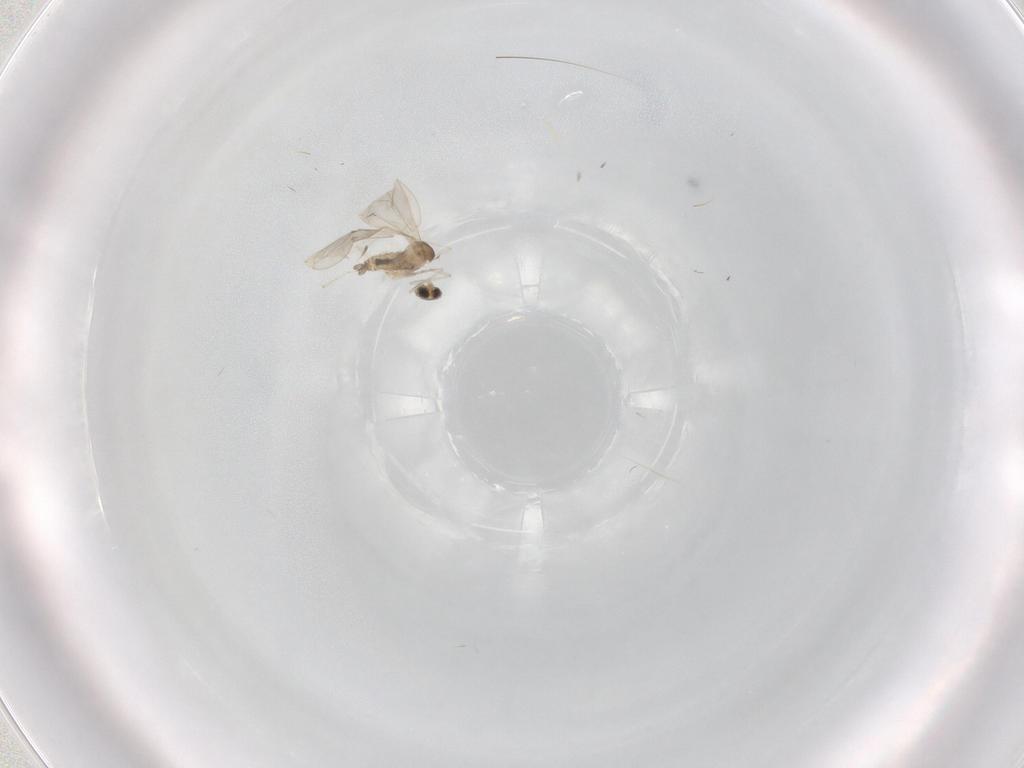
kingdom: Animalia
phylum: Arthropoda
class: Insecta
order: Diptera
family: Cecidomyiidae
